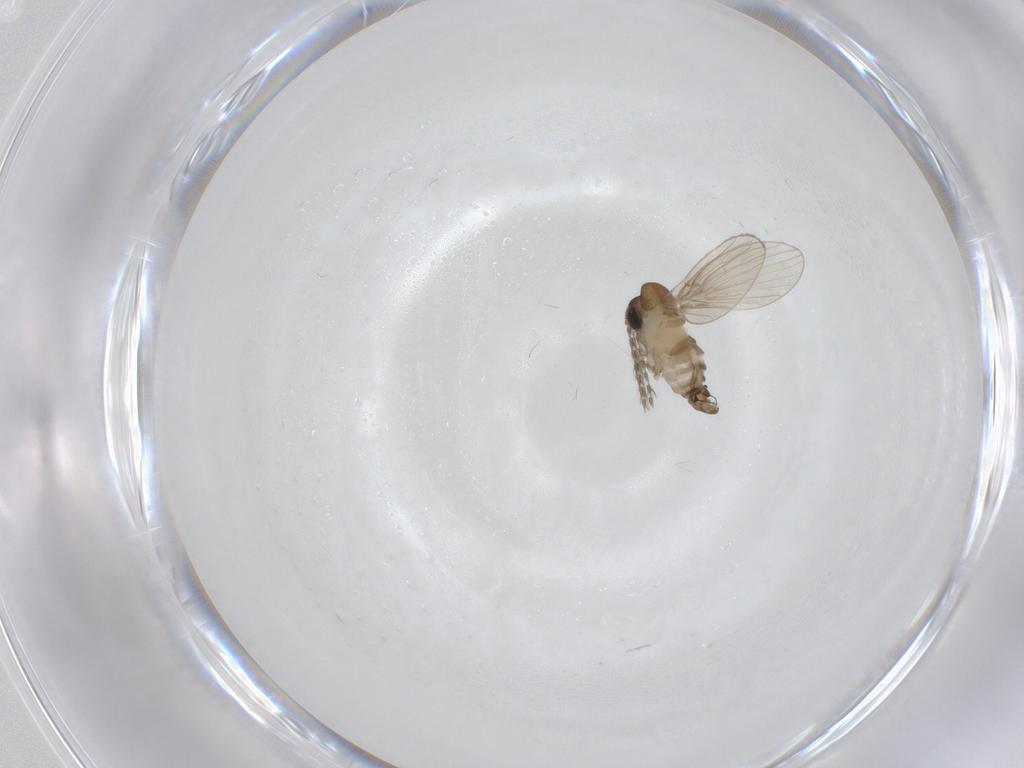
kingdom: Animalia
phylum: Arthropoda
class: Insecta
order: Diptera
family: Psychodidae
